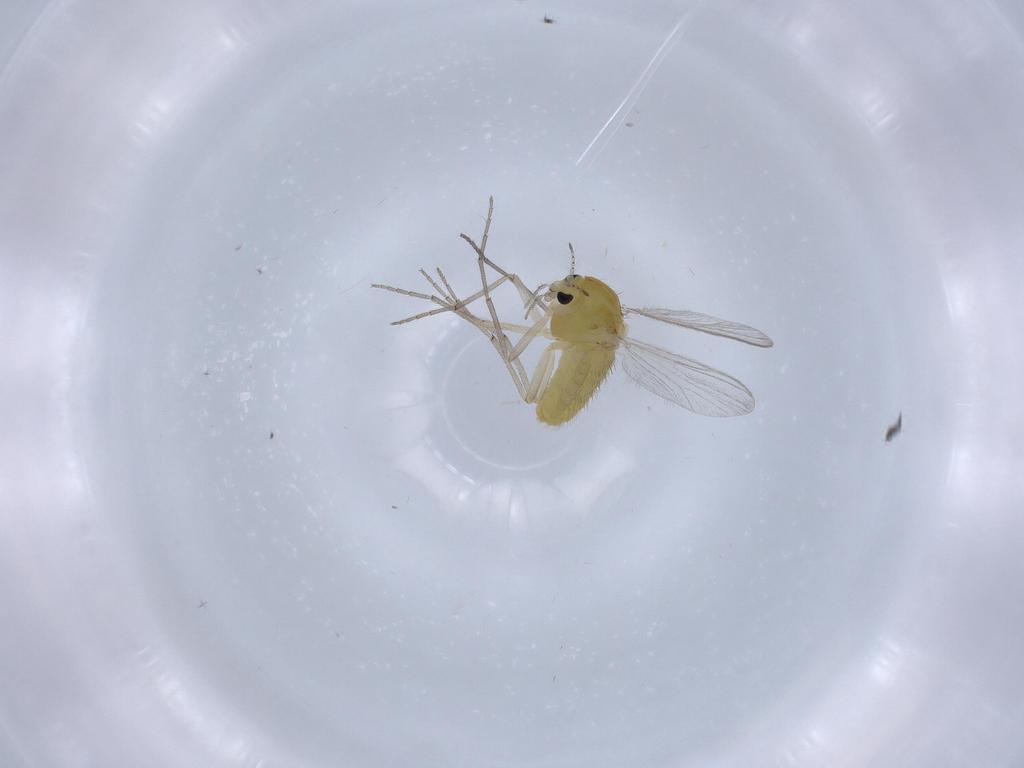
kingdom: Animalia
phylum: Arthropoda
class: Insecta
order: Diptera
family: Chironomidae
